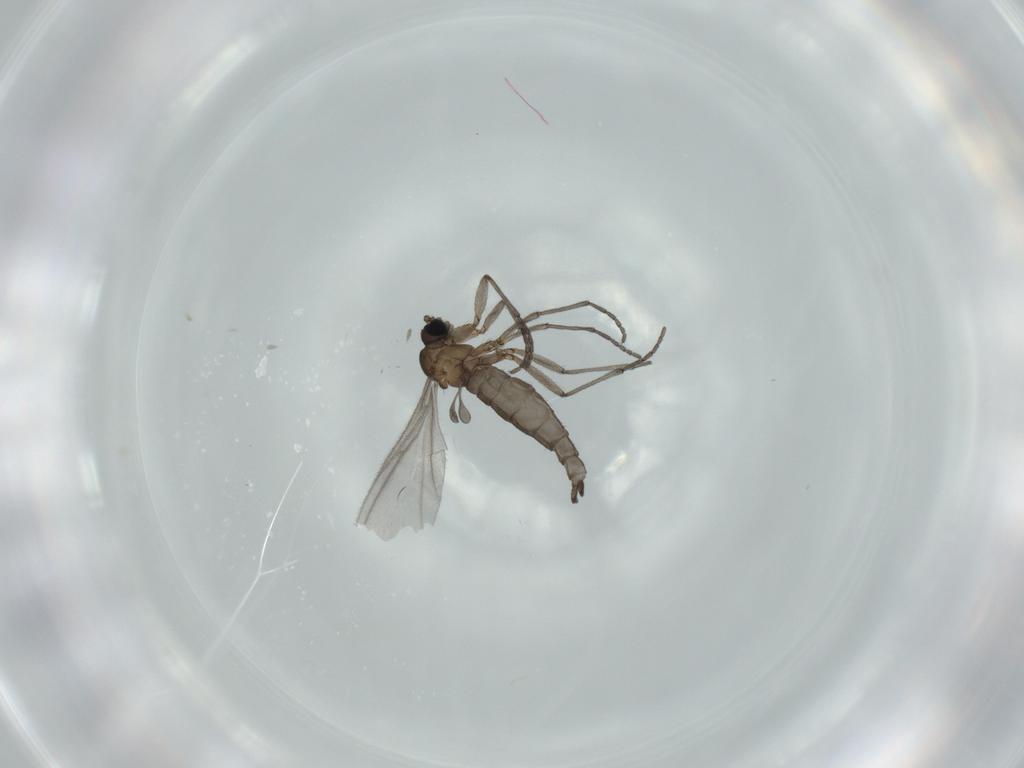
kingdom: Animalia
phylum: Arthropoda
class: Insecta
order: Diptera
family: Sciaridae
